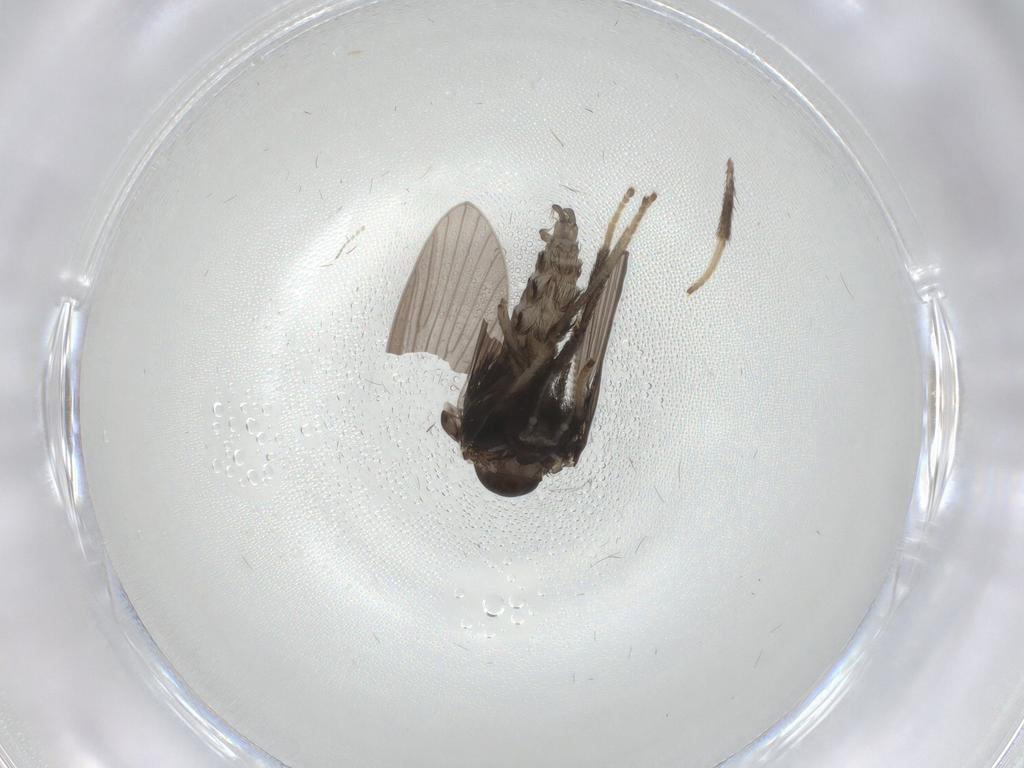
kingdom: Animalia
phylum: Arthropoda
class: Insecta
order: Diptera
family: Psychodidae
